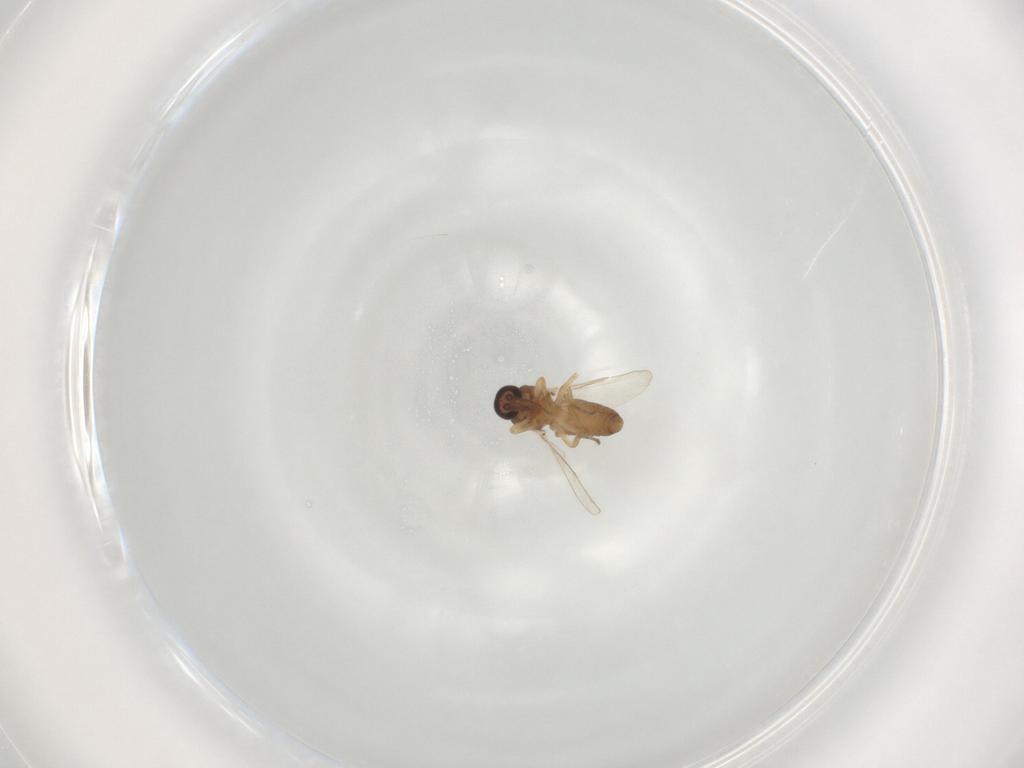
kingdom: Animalia
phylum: Arthropoda
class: Insecta
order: Diptera
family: Ceratopogonidae
